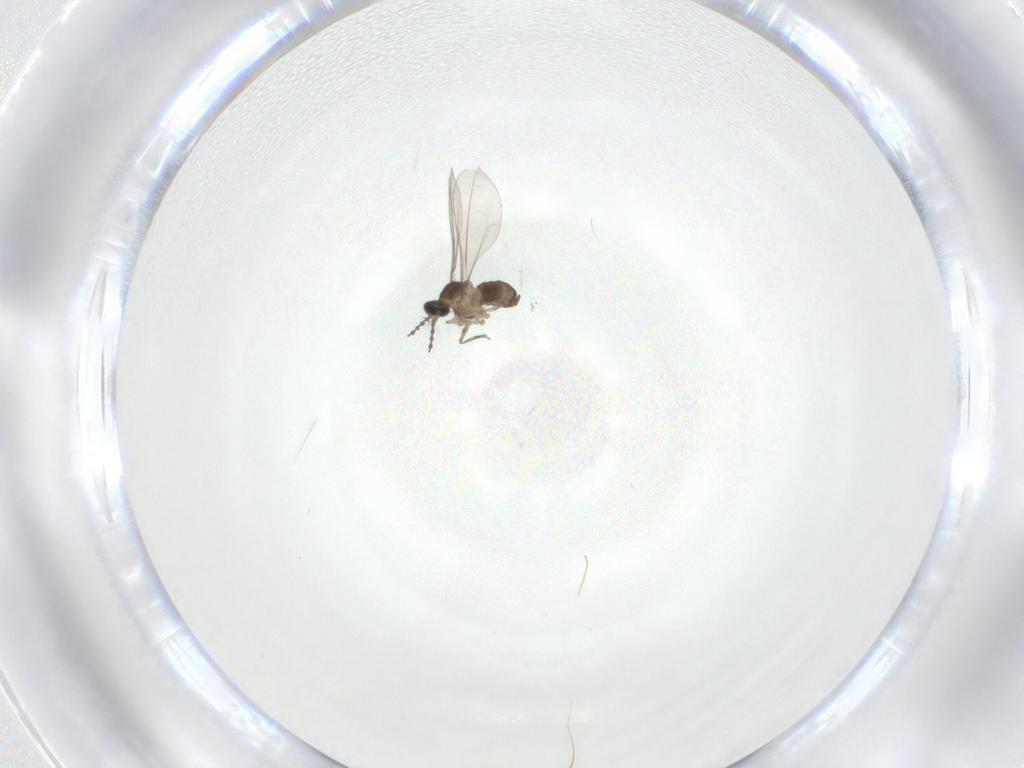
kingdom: Animalia
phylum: Arthropoda
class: Insecta
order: Diptera
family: Chironomidae
